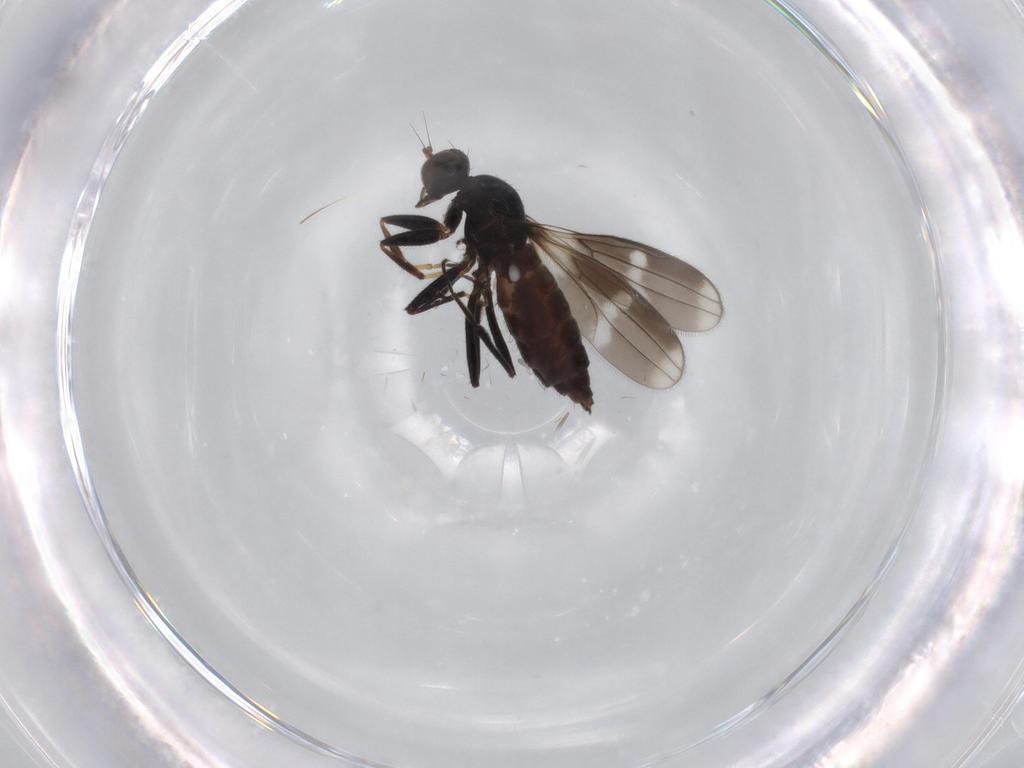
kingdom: Animalia
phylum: Arthropoda
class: Insecta
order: Diptera
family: Hybotidae
